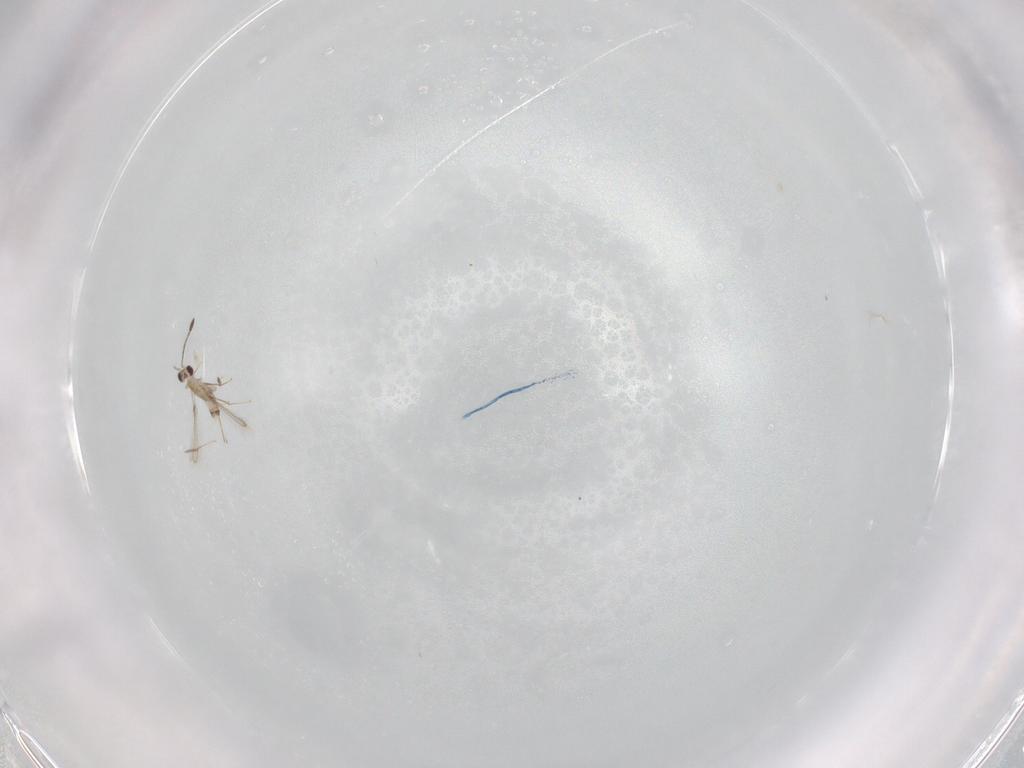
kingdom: Animalia
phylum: Arthropoda
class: Insecta
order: Hymenoptera
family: Mymaridae
